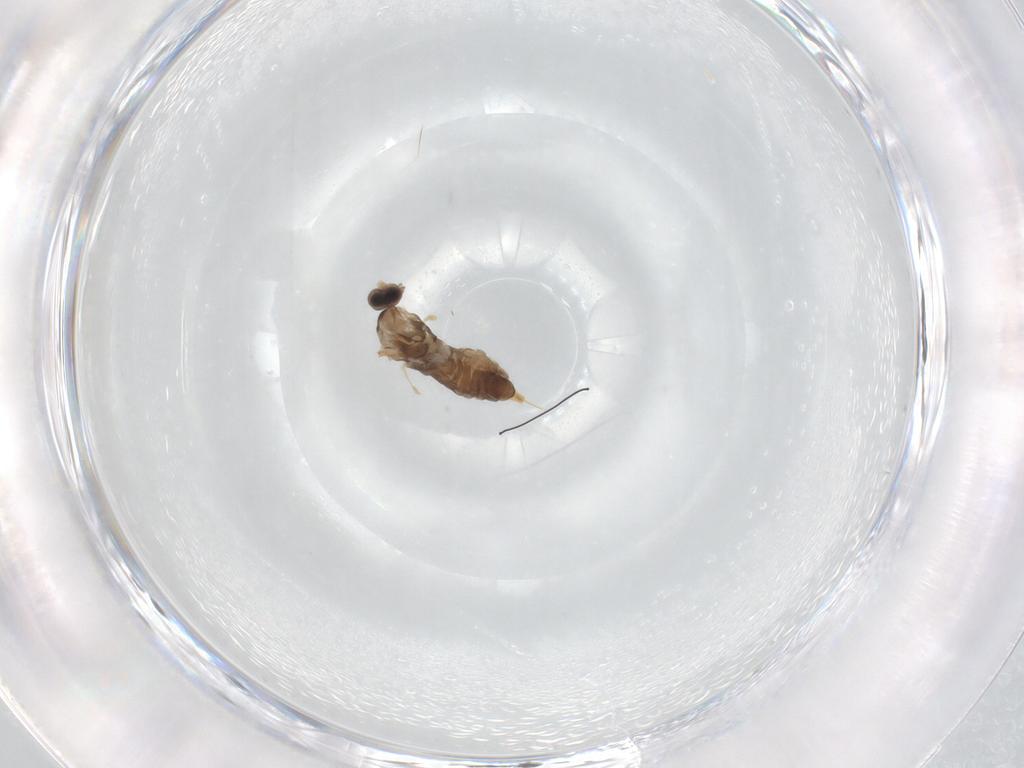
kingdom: Animalia
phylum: Arthropoda
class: Insecta
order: Diptera
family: Cecidomyiidae
